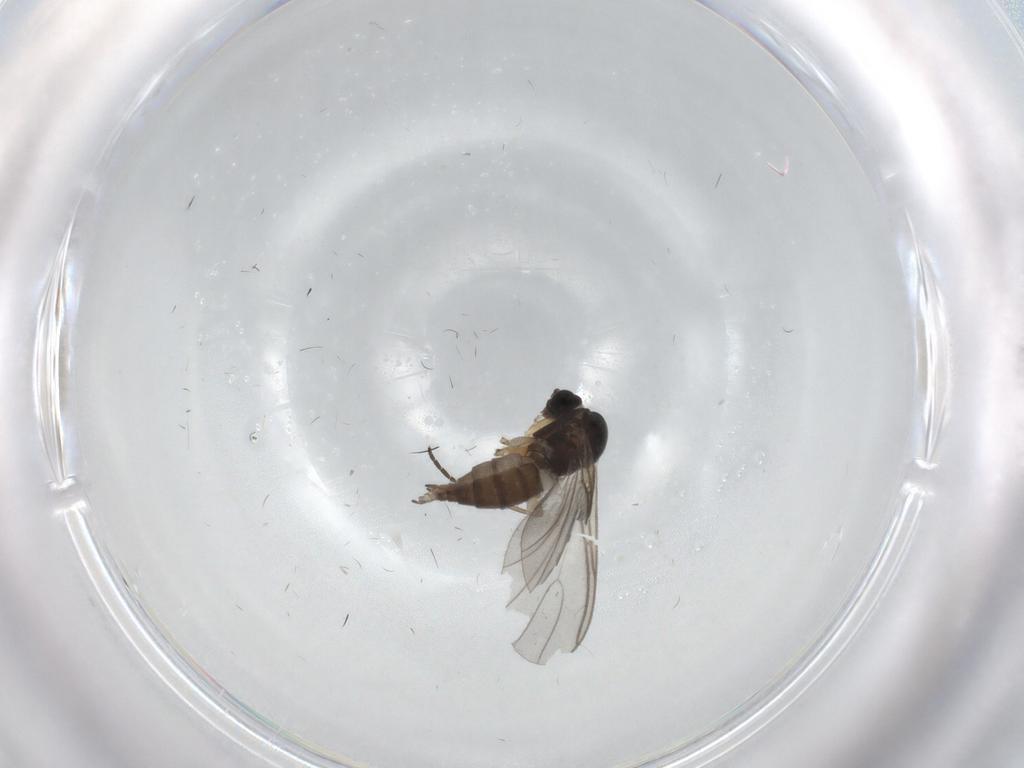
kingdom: Animalia
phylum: Arthropoda
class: Insecta
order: Diptera
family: Sciaridae
